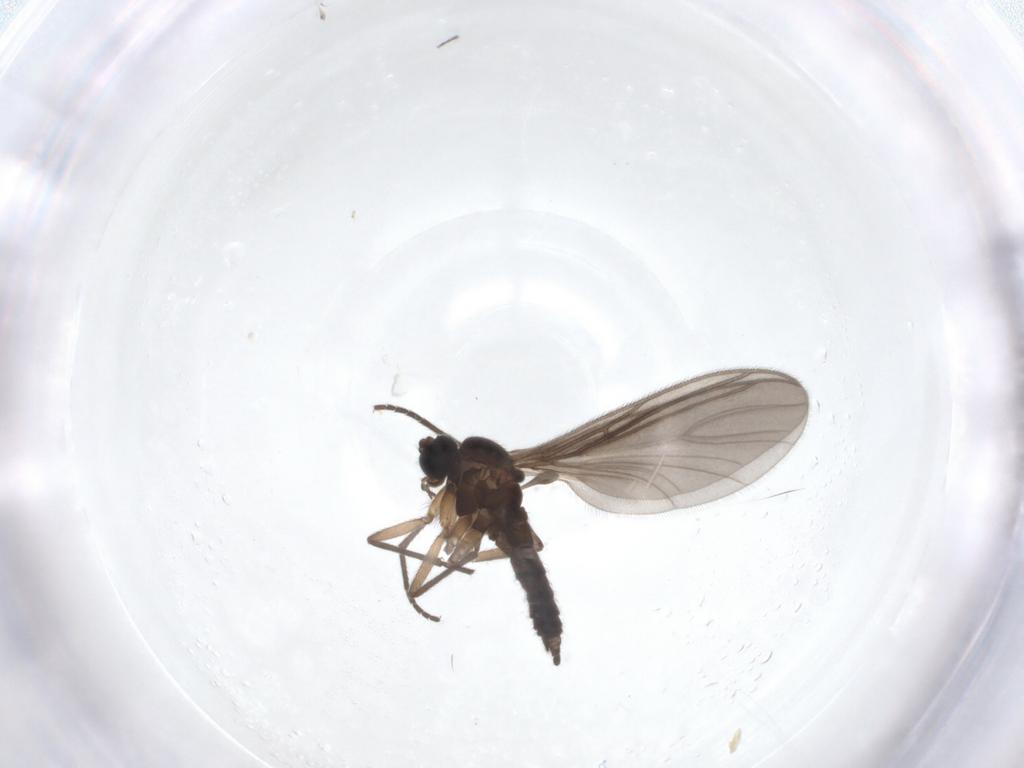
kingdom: Animalia
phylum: Arthropoda
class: Insecta
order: Diptera
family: Sciaridae
